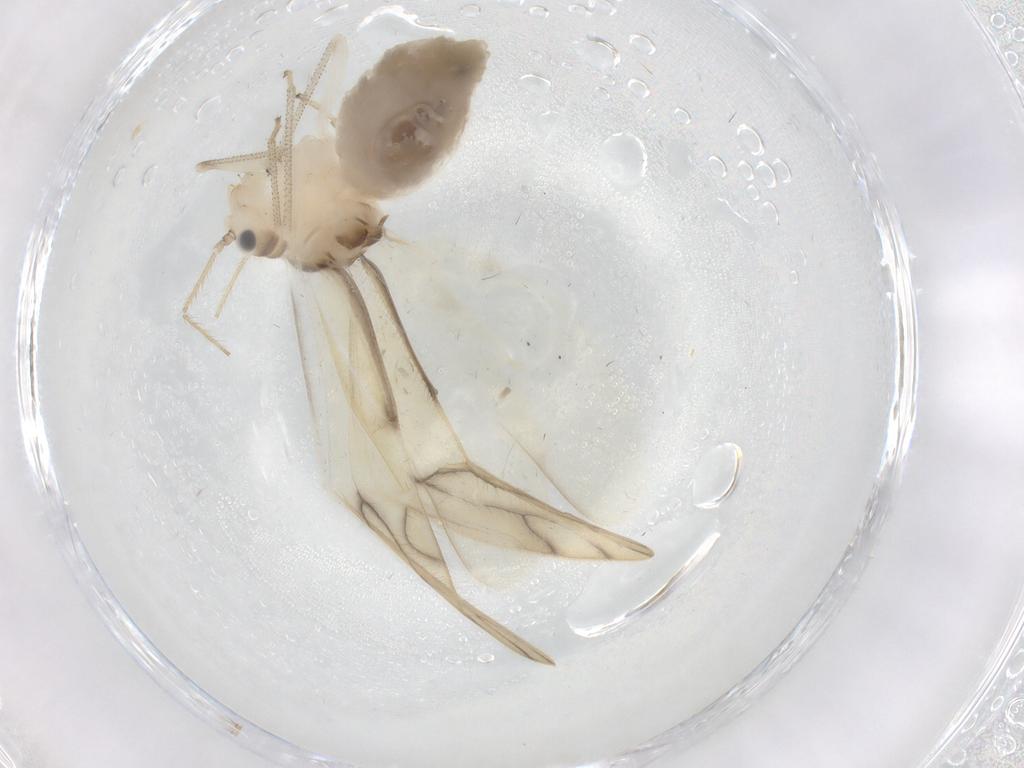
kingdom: Animalia
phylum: Arthropoda
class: Insecta
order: Psocodea
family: Caeciliusidae
